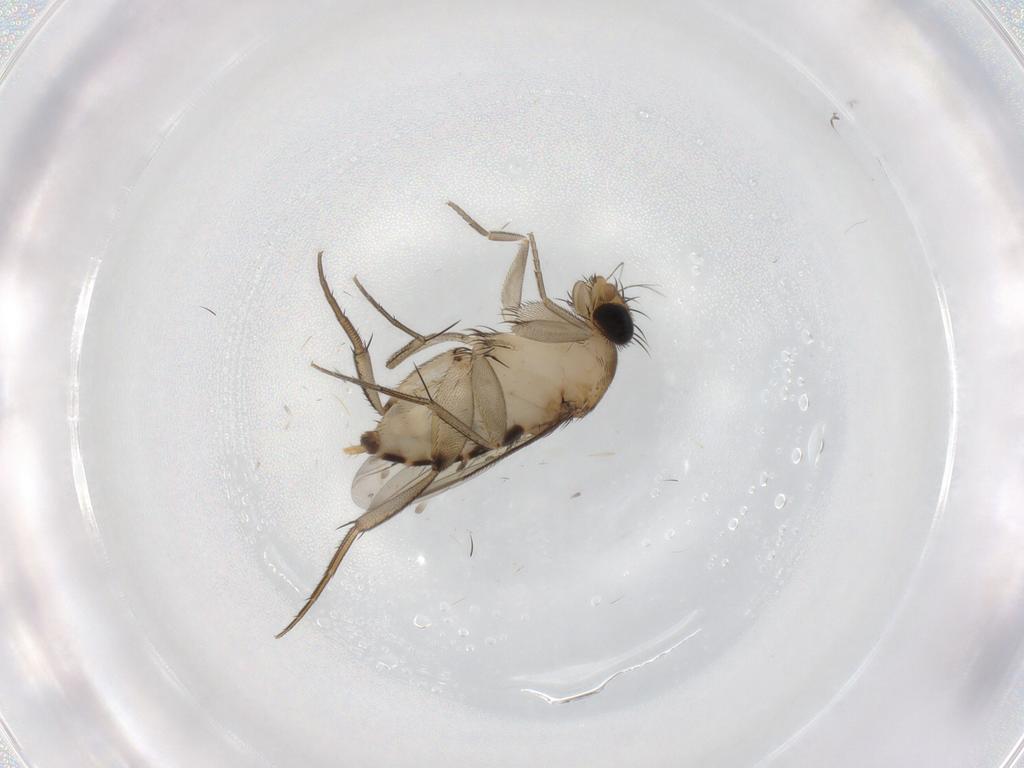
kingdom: Animalia
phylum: Arthropoda
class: Insecta
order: Diptera
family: Phoridae
